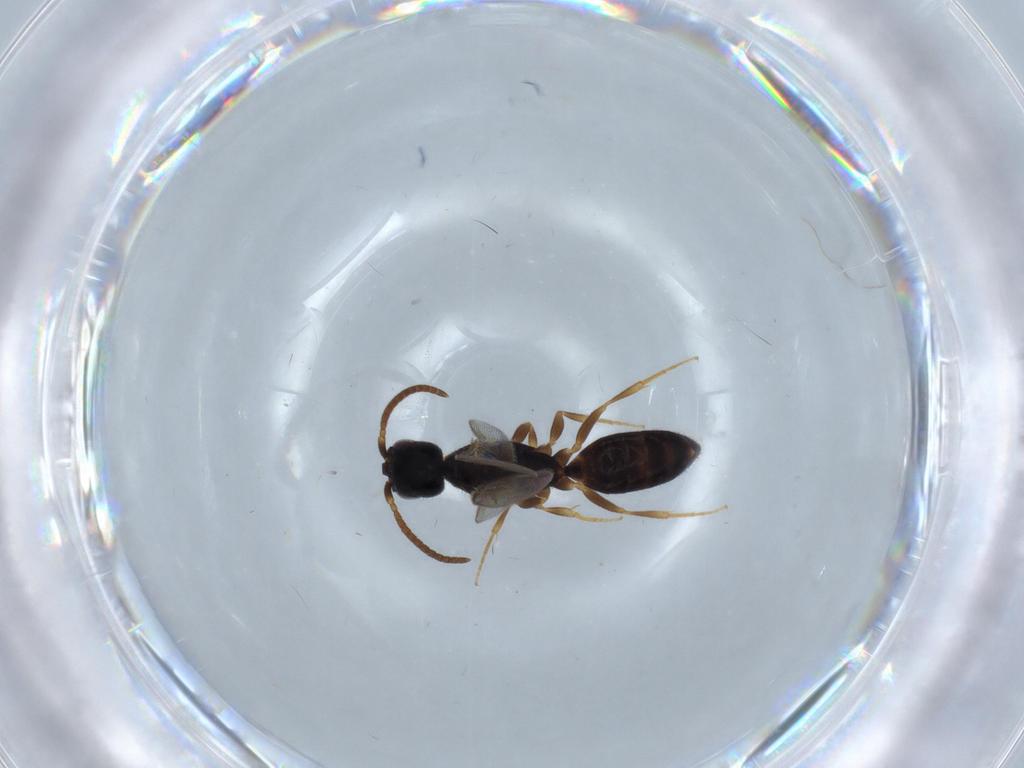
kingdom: Animalia
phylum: Arthropoda
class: Insecta
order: Hymenoptera
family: Bethylidae
